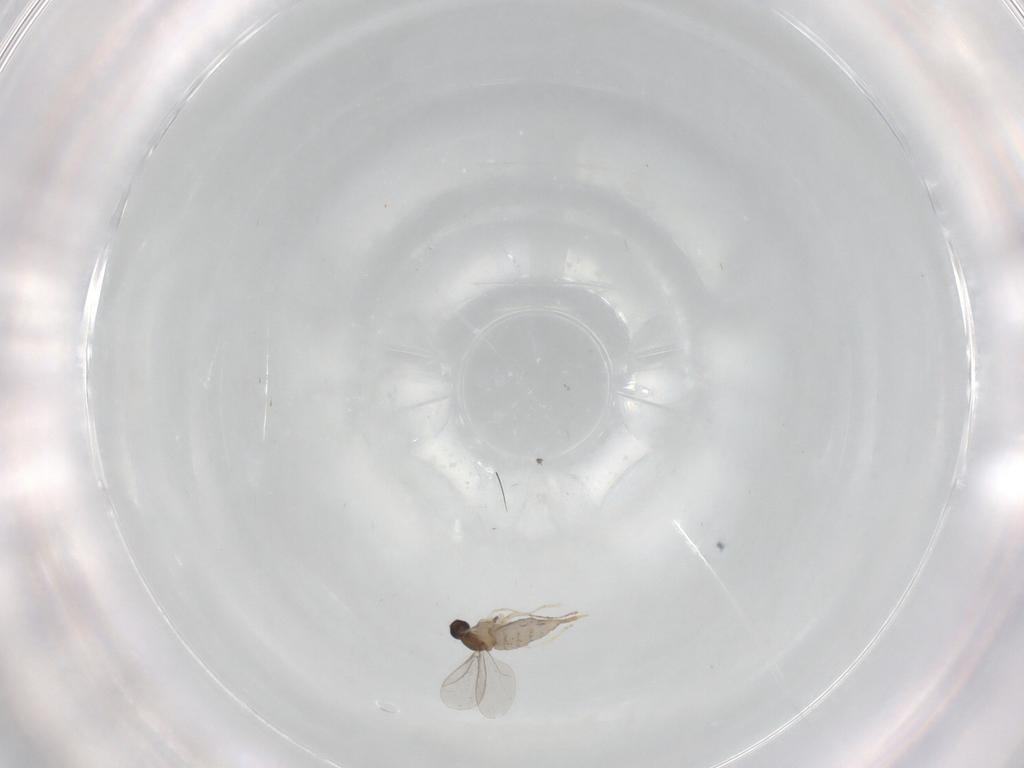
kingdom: Animalia
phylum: Arthropoda
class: Insecta
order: Diptera
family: Cecidomyiidae
